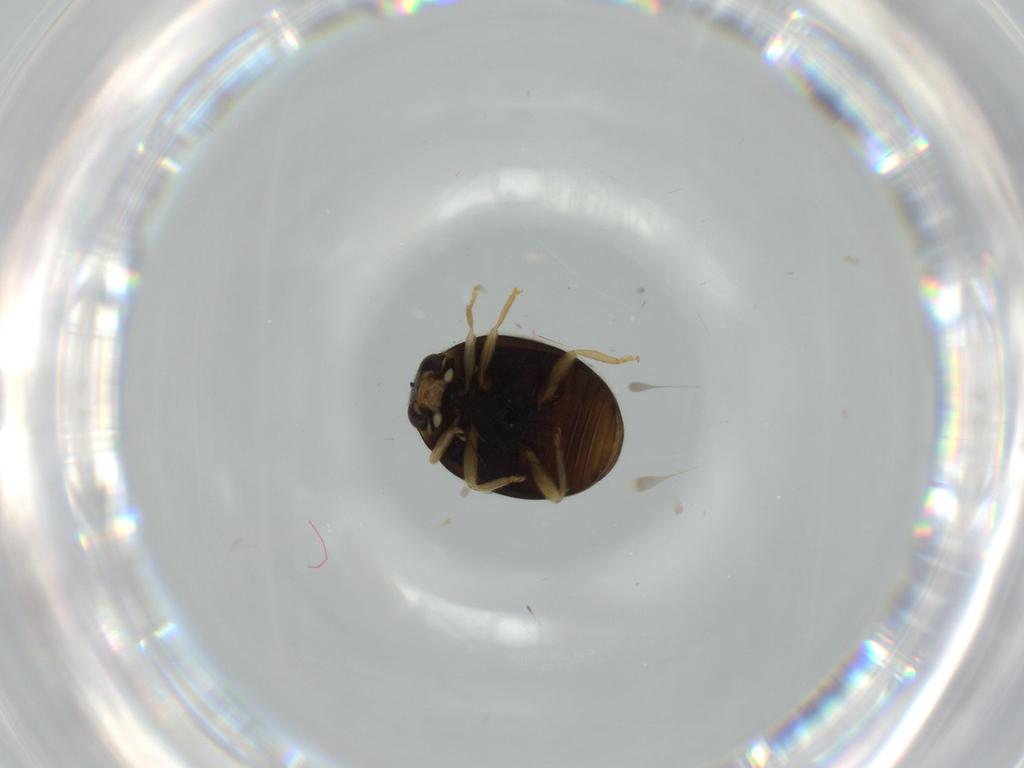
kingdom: Animalia
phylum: Arthropoda
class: Insecta
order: Coleoptera
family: Coccinellidae
